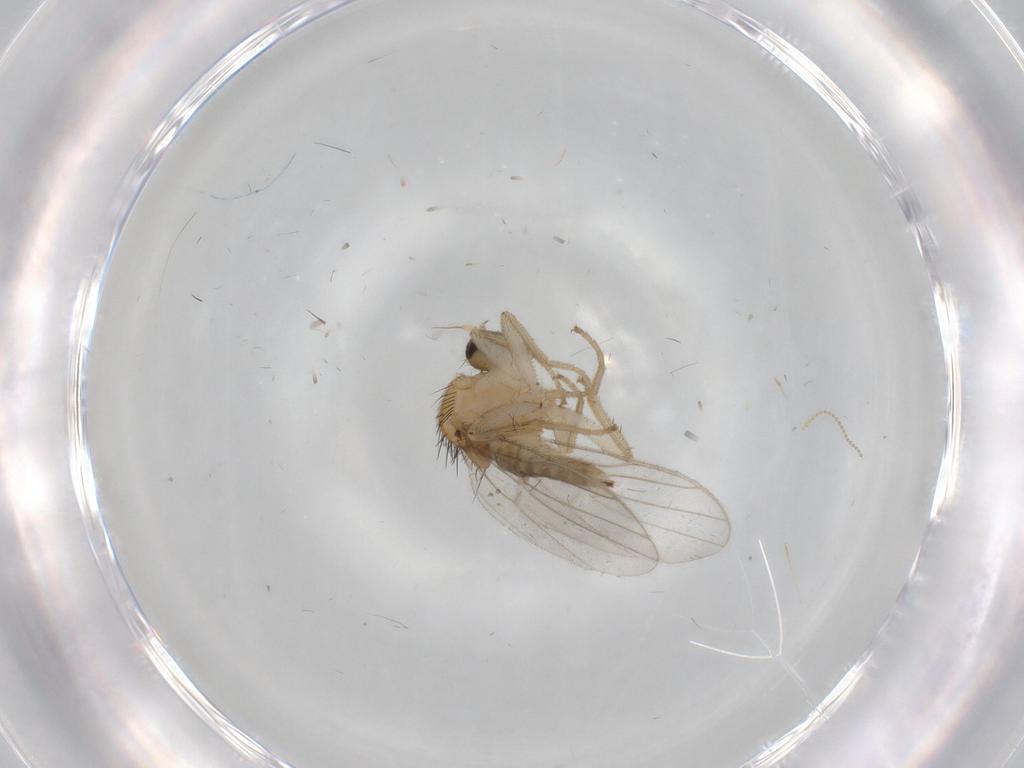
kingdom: Animalia
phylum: Arthropoda
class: Insecta
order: Diptera
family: Hybotidae
